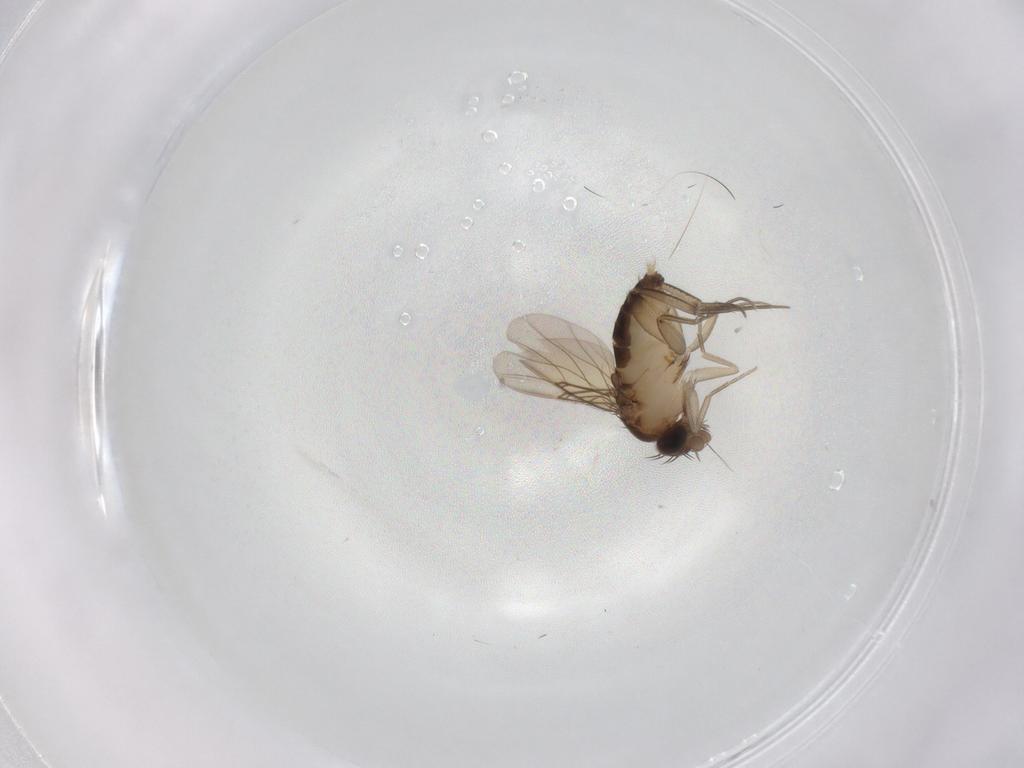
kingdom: Animalia
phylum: Arthropoda
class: Insecta
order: Diptera
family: Phoridae
